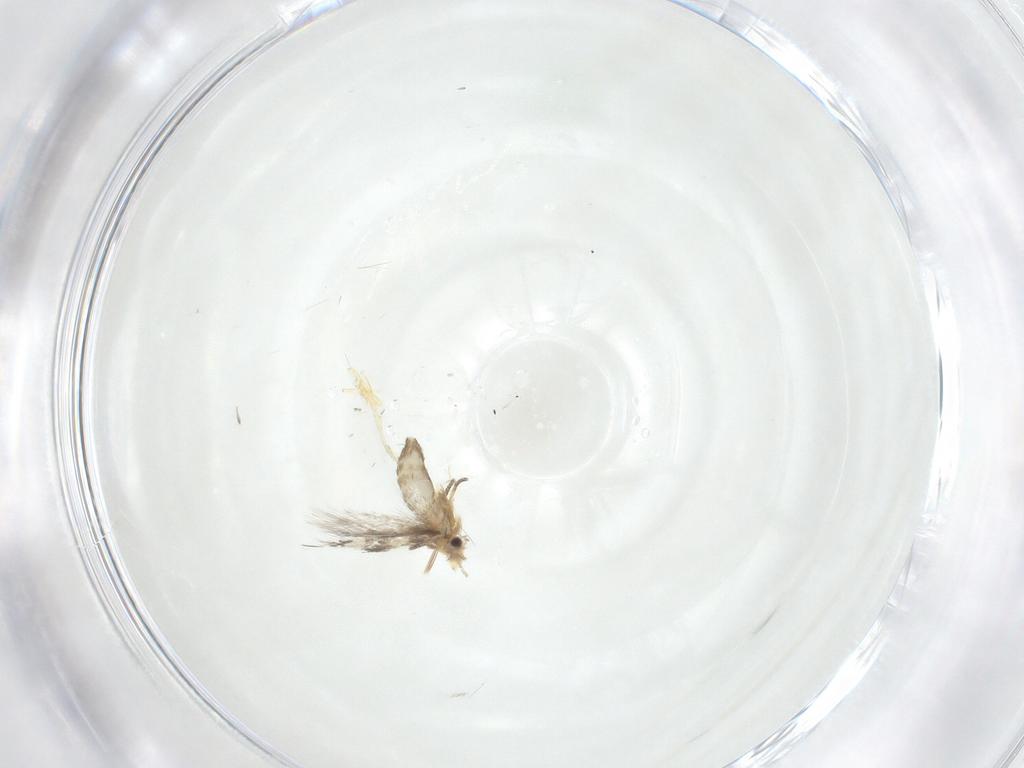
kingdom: Animalia
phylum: Arthropoda
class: Insecta
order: Lepidoptera
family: Nepticulidae
